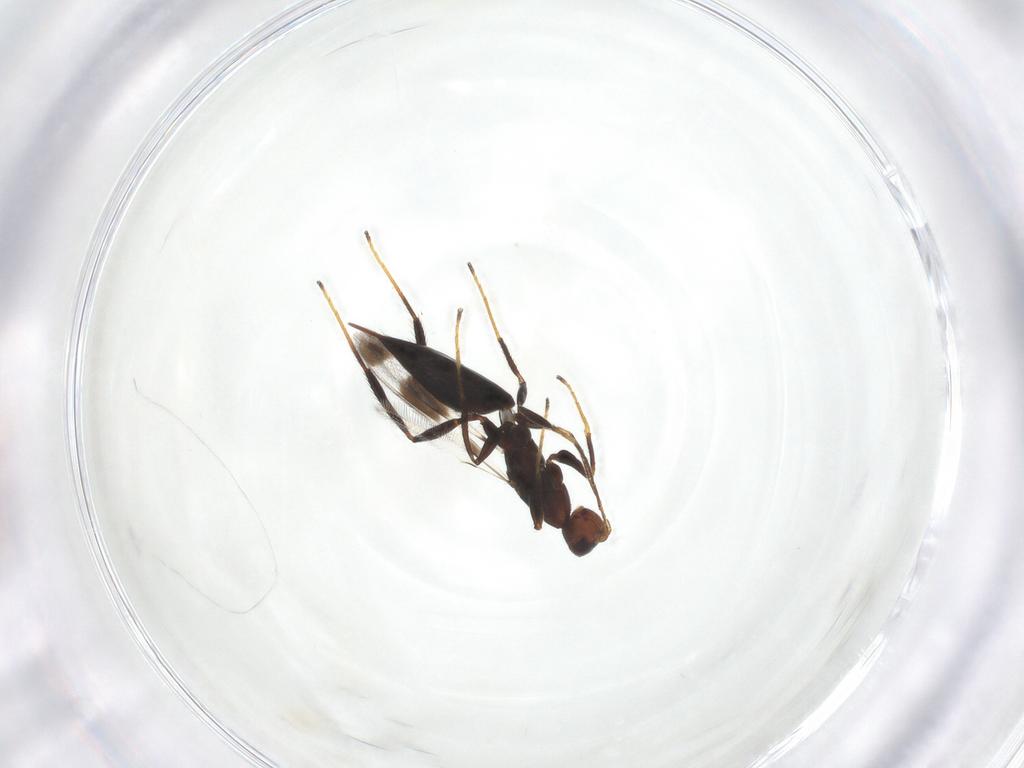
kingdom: Animalia
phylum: Arthropoda
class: Insecta
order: Hymenoptera
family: Mymaridae
